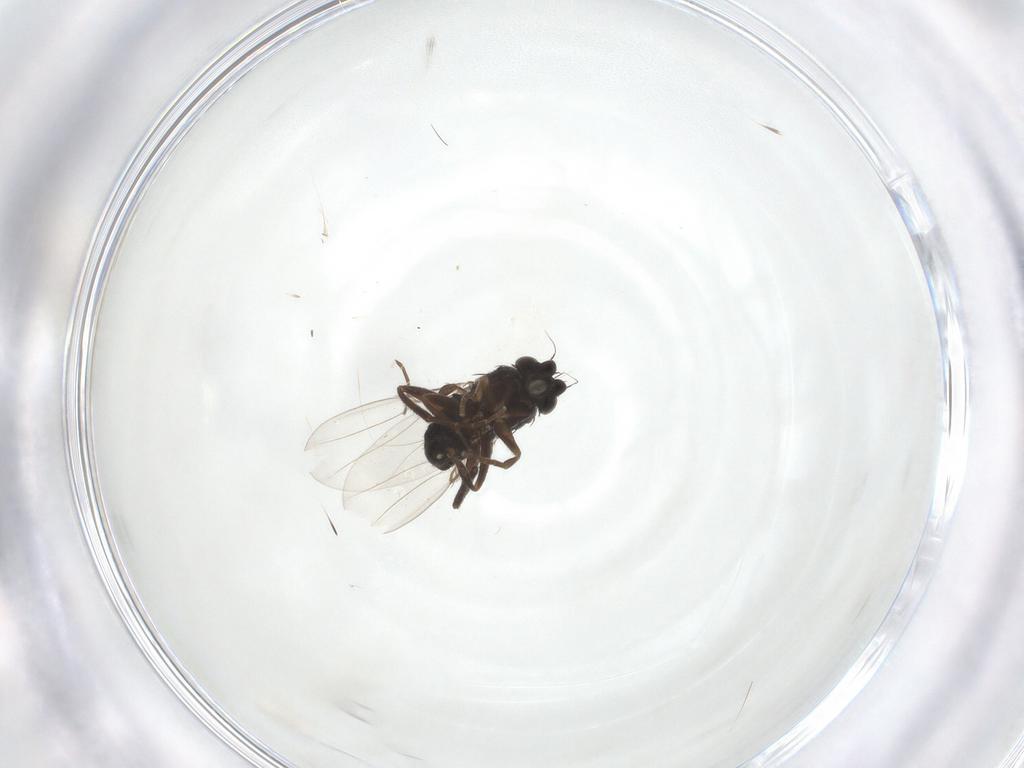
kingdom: Animalia
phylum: Arthropoda
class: Insecta
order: Diptera
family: Phoridae
